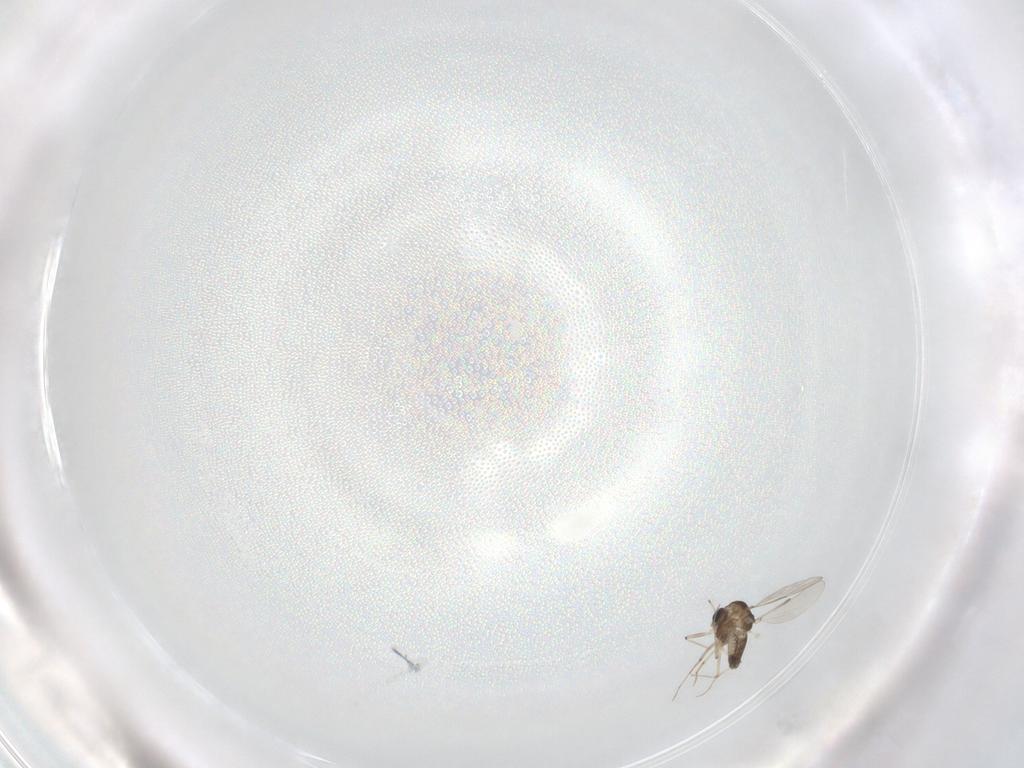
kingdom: Animalia
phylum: Arthropoda
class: Insecta
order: Diptera
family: Chironomidae
